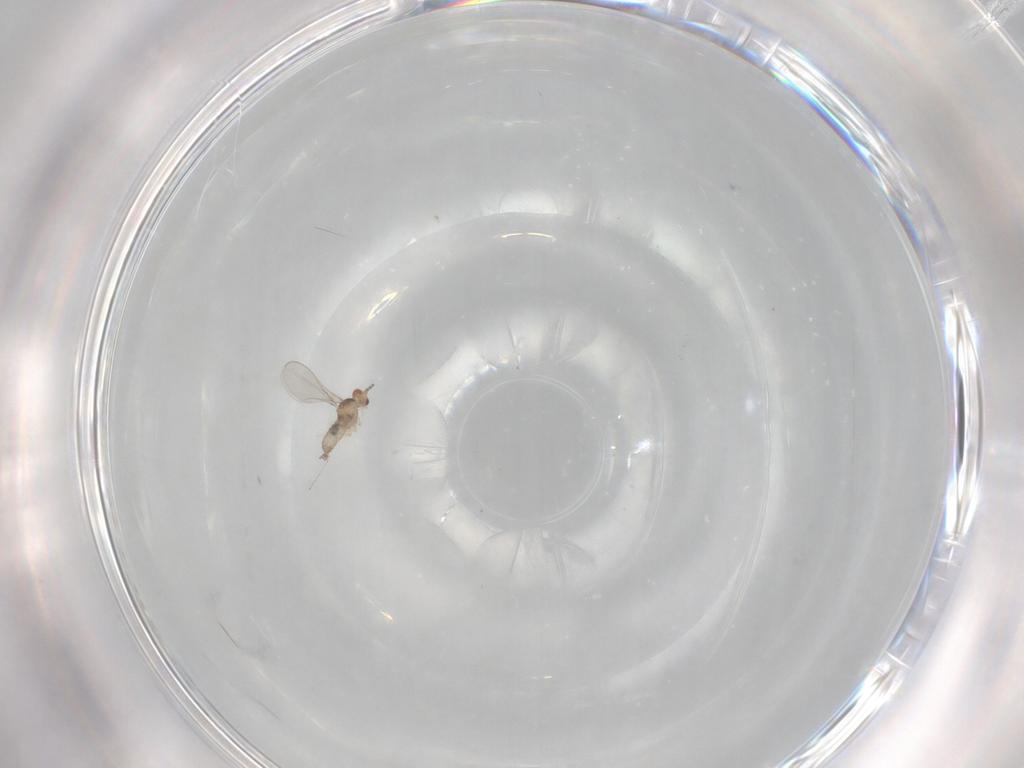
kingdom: Animalia
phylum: Arthropoda
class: Insecta
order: Diptera
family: Cecidomyiidae
